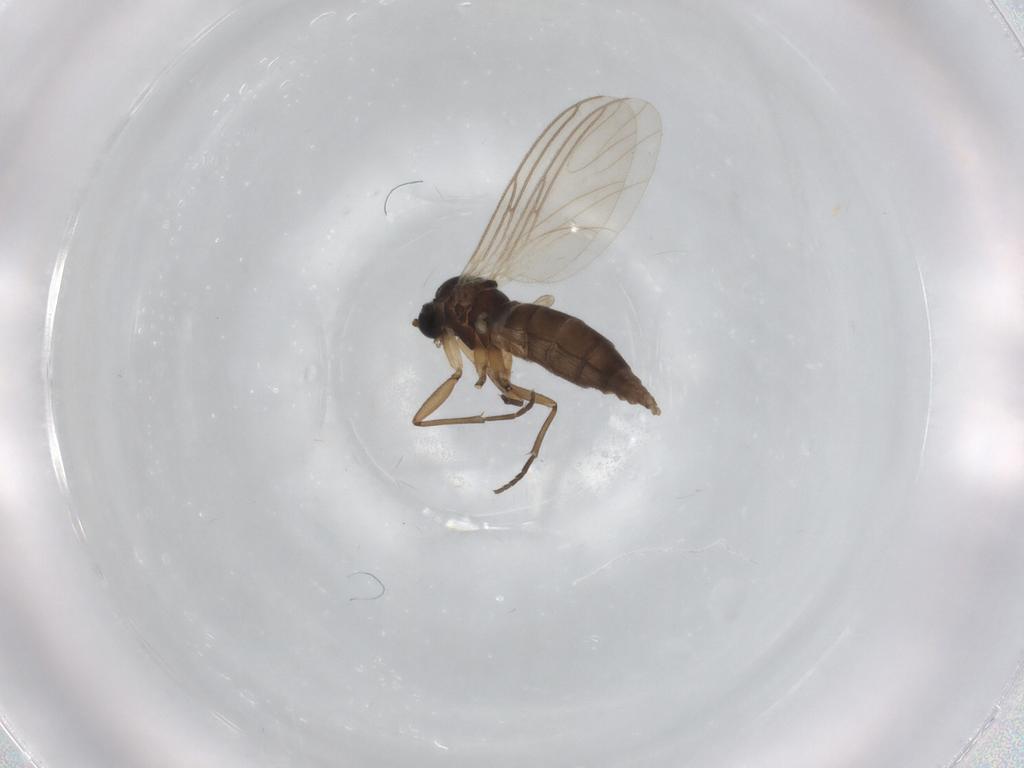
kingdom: Animalia
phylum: Arthropoda
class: Insecta
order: Diptera
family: Sciaridae
